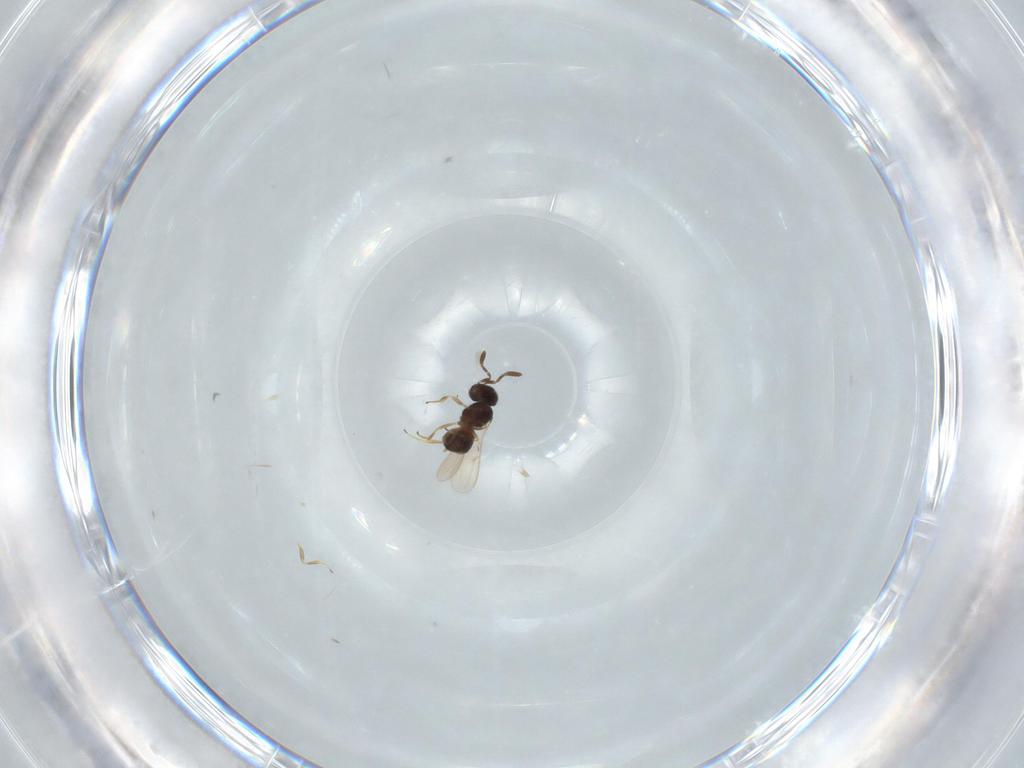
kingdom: Animalia
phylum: Arthropoda
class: Insecta
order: Hymenoptera
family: Scelionidae
